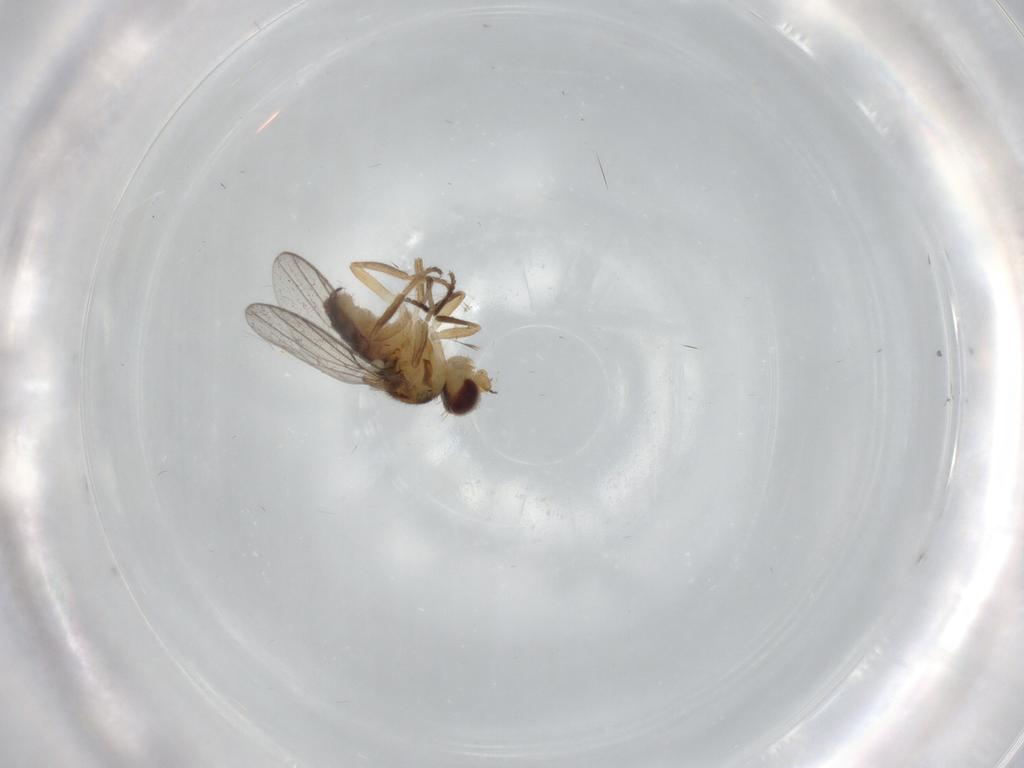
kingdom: Animalia
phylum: Arthropoda
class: Insecta
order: Diptera
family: Chloropidae
